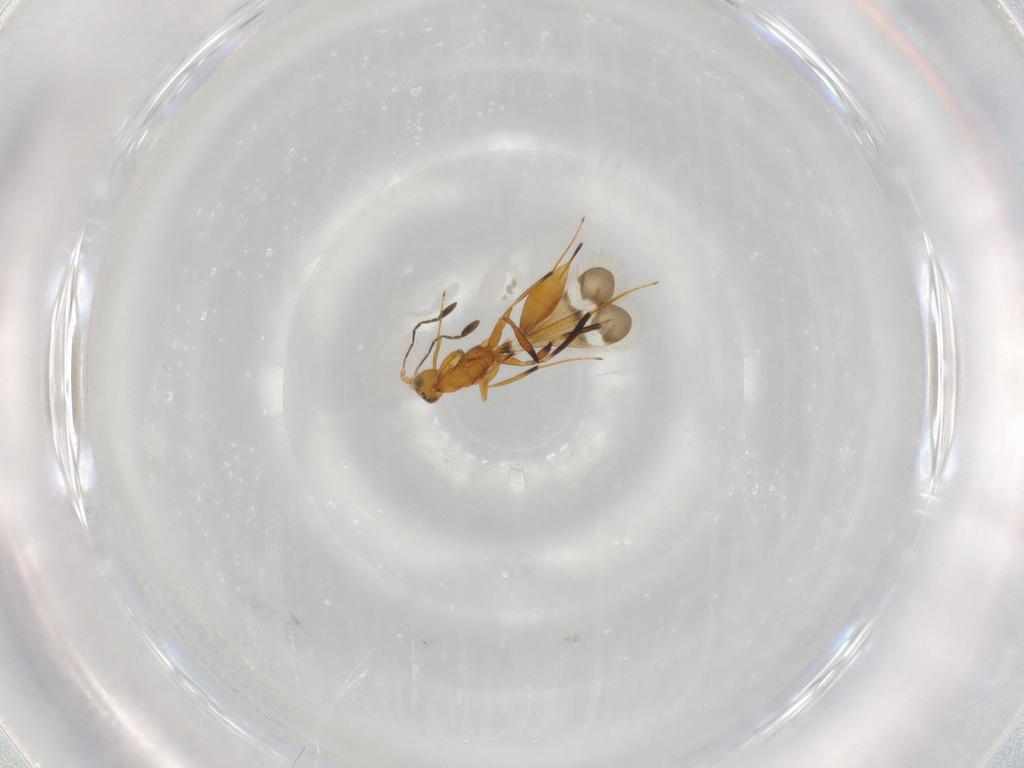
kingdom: Animalia
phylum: Arthropoda
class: Insecta
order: Hymenoptera
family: Mymaridae
